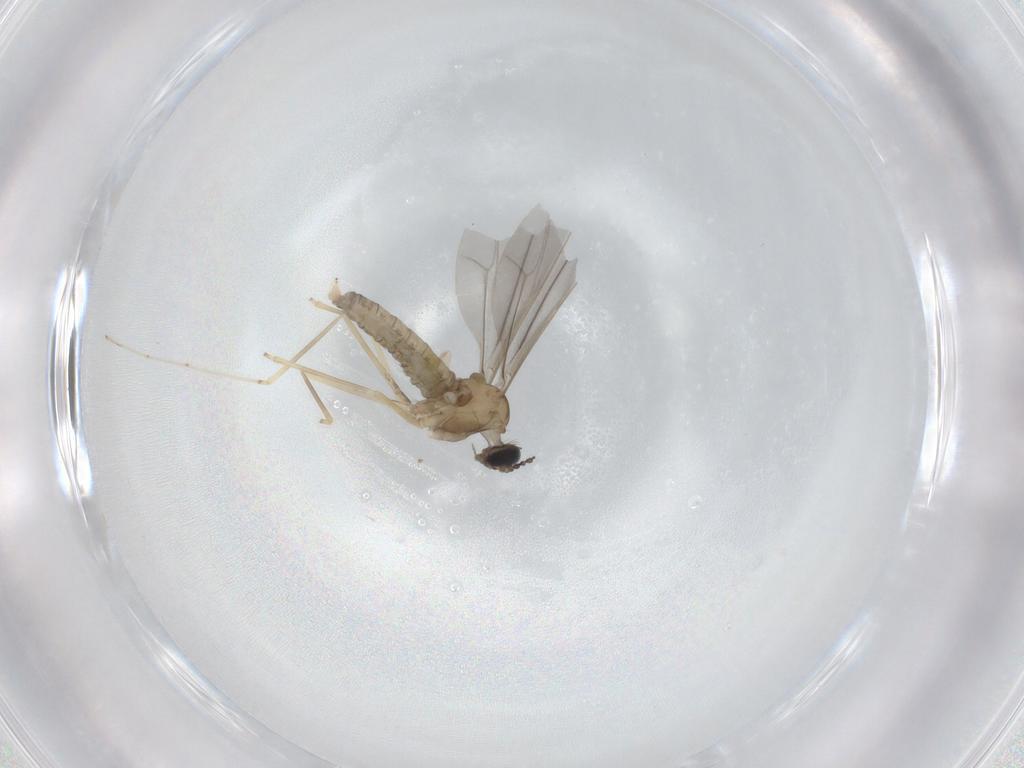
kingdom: Animalia
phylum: Arthropoda
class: Insecta
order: Diptera
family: Cecidomyiidae
